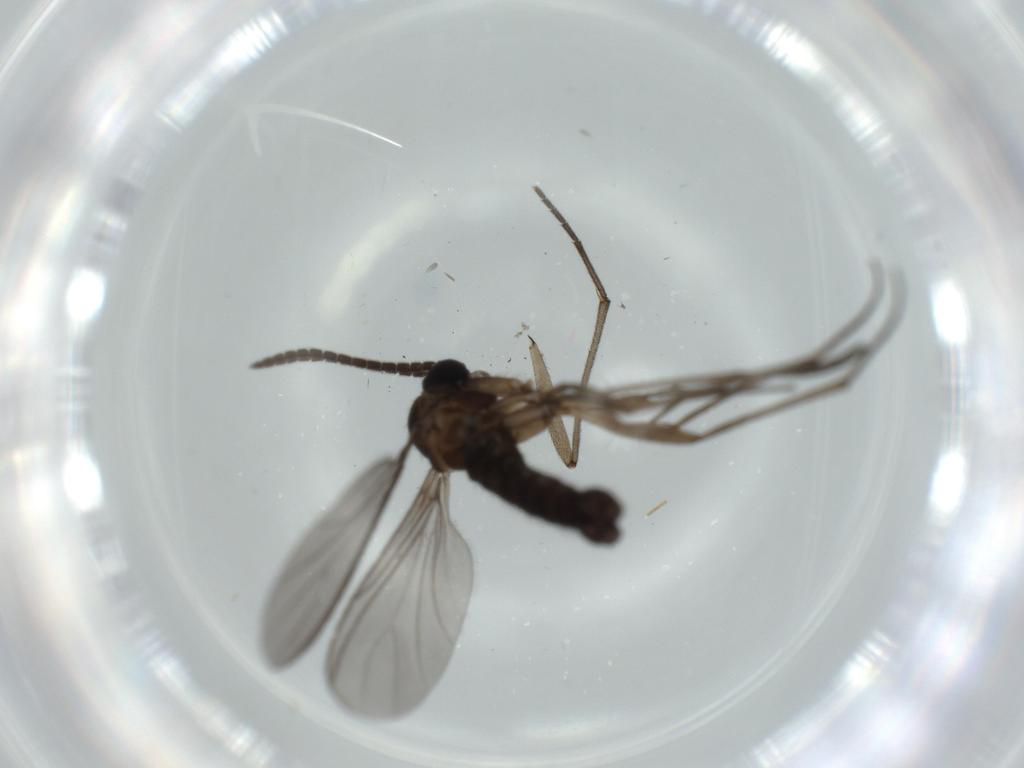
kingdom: Animalia
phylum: Arthropoda
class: Insecta
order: Diptera
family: Sciaridae
